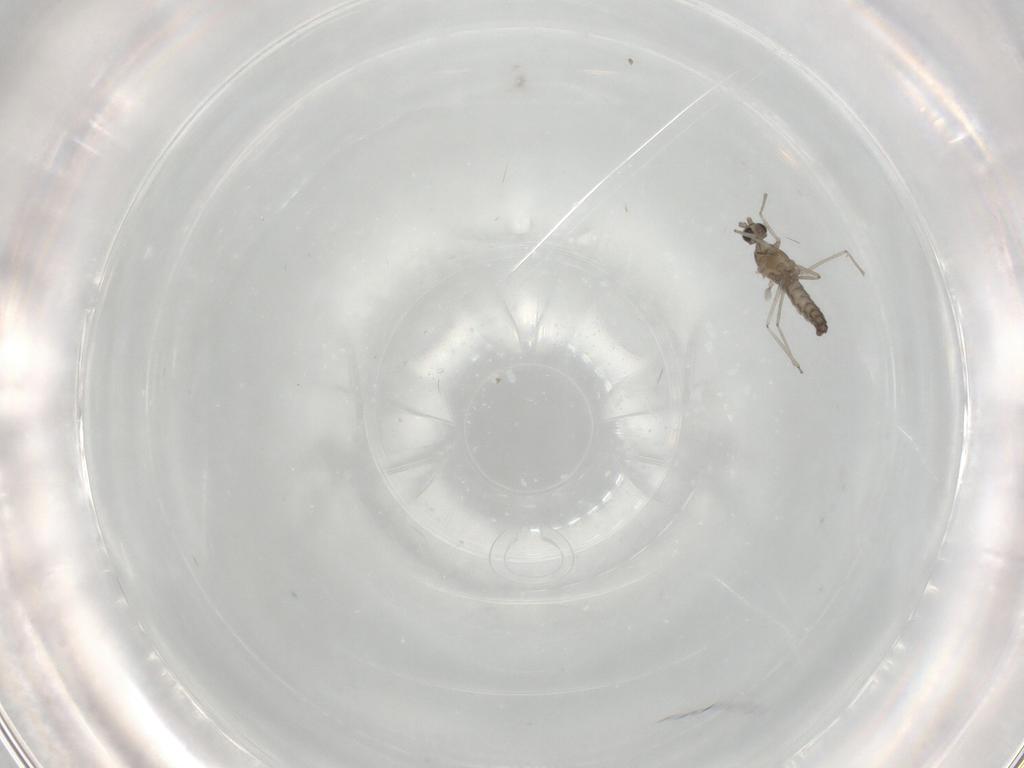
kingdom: Animalia
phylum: Arthropoda
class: Insecta
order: Diptera
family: Cecidomyiidae
